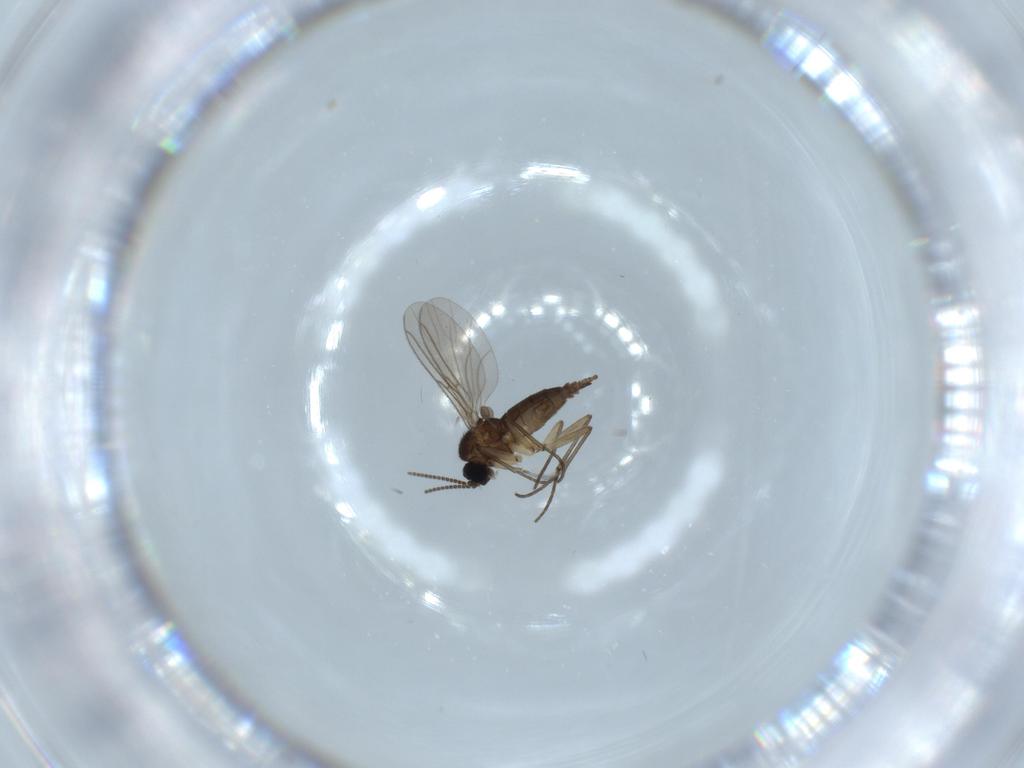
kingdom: Animalia
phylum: Arthropoda
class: Insecta
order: Diptera
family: Sciaridae
